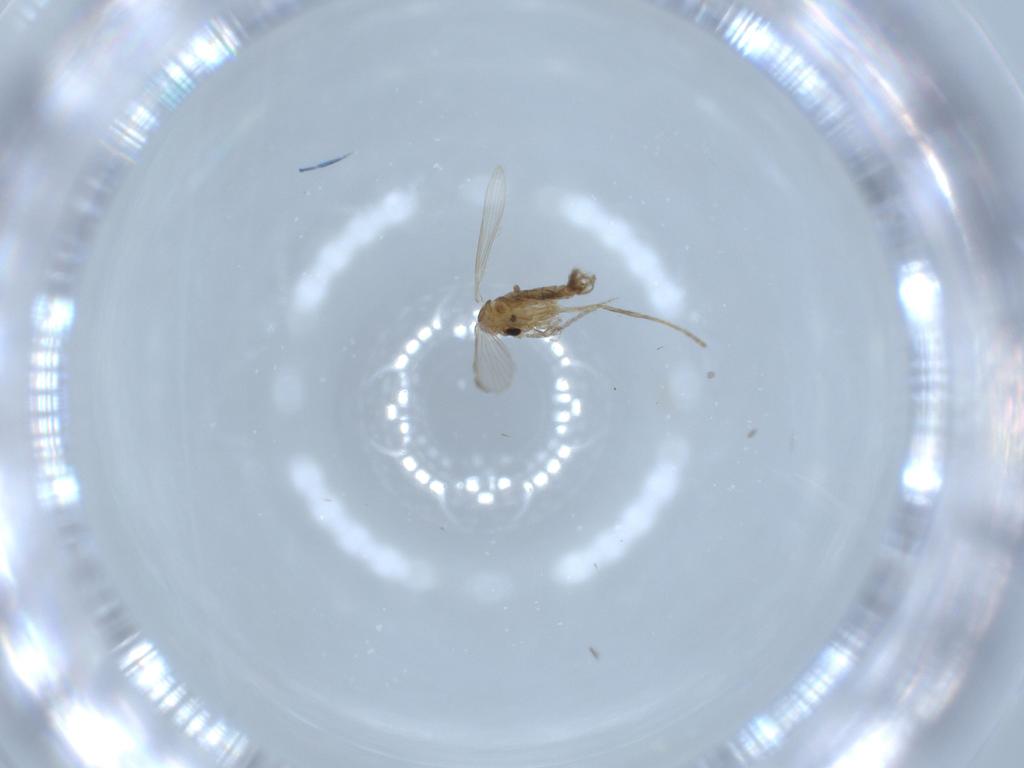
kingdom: Animalia
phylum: Arthropoda
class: Insecta
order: Diptera
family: Psychodidae
